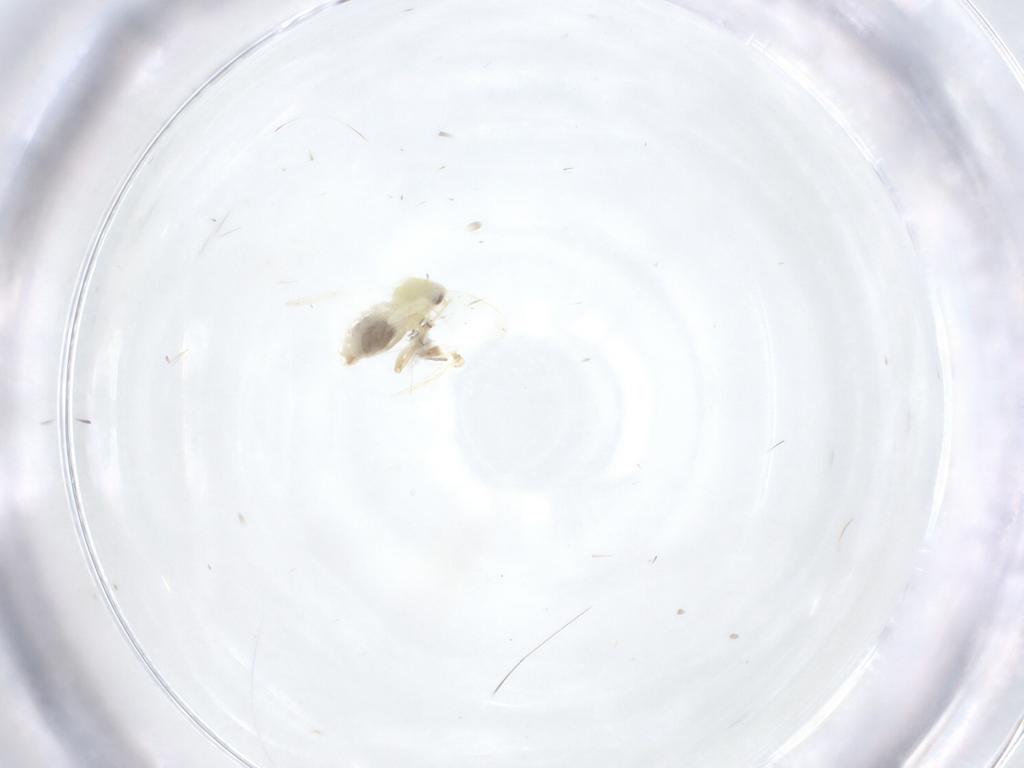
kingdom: Animalia
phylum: Arthropoda
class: Insecta
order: Hemiptera
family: Aleyrodidae
